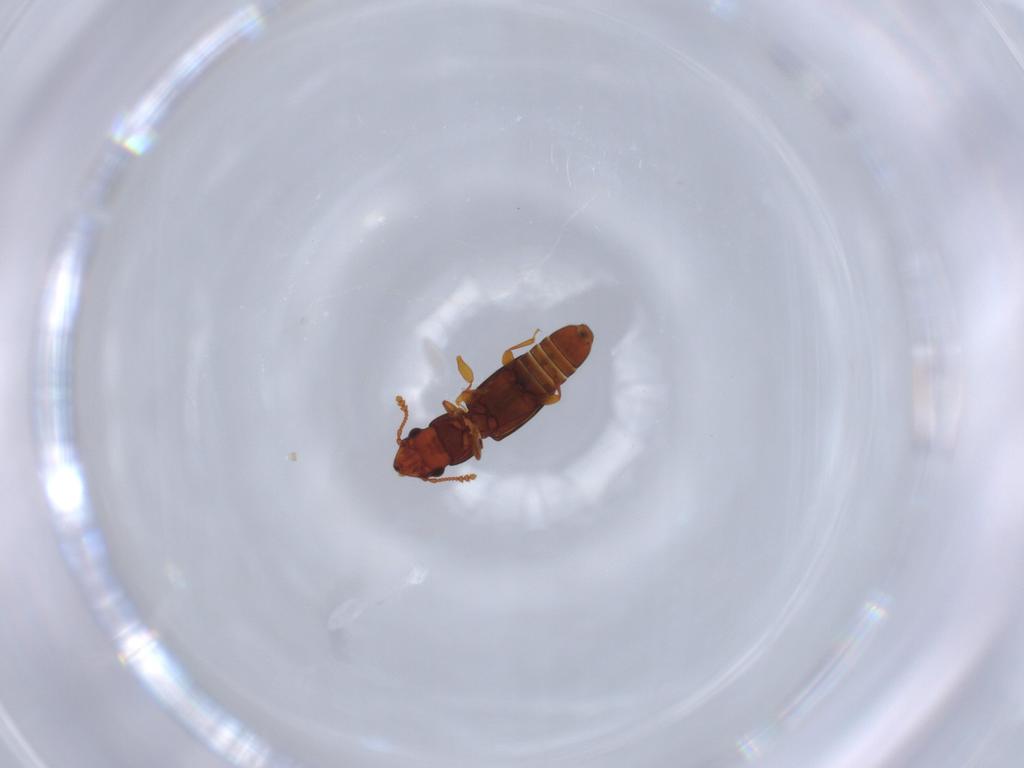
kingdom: Animalia
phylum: Arthropoda
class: Insecta
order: Coleoptera
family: Smicripidae
